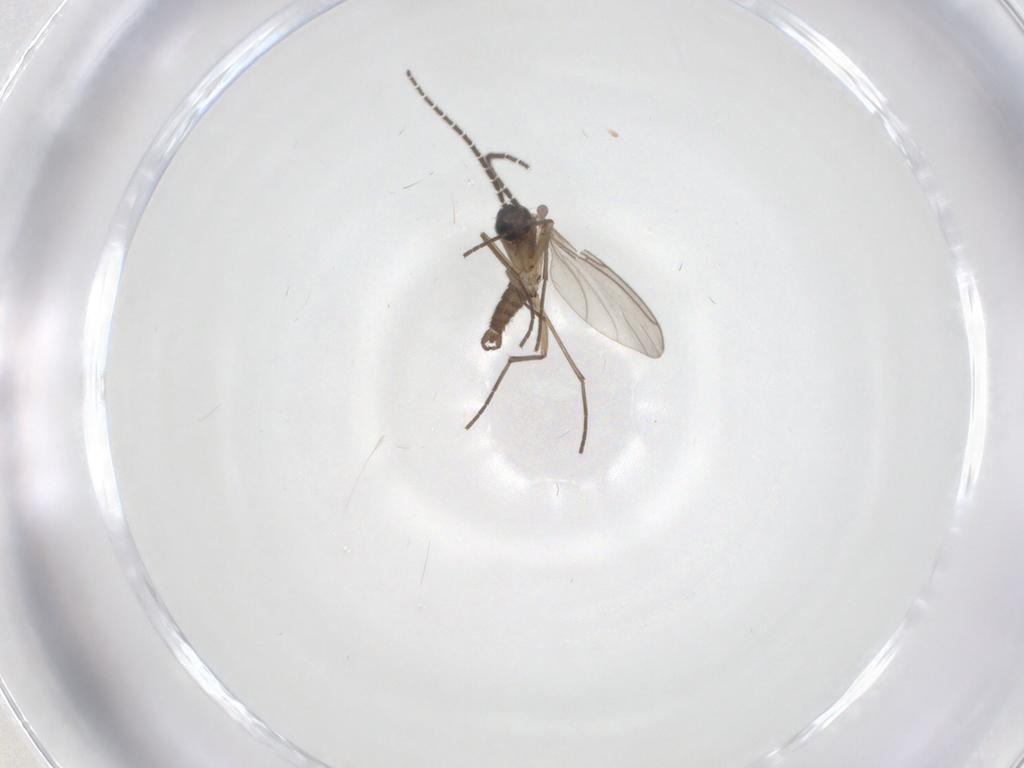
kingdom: Animalia
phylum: Arthropoda
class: Insecta
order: Diptera
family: Sciaridae
